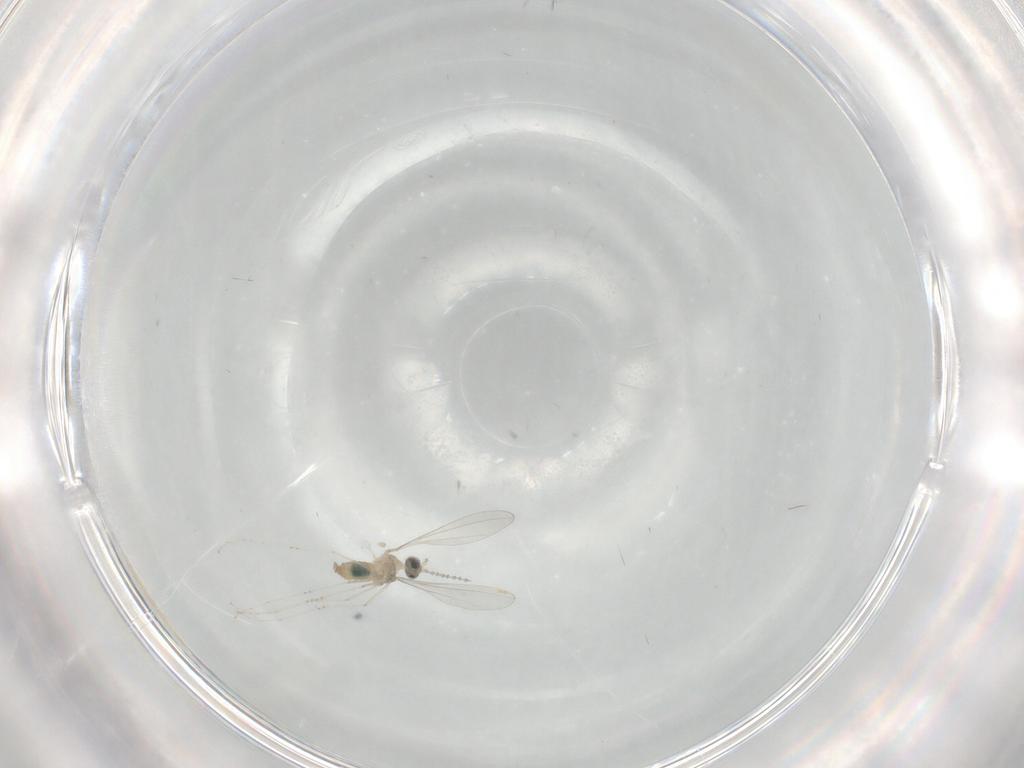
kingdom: Animalia
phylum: Arthropoda
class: Insecta
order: Diptera
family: Cecidomyiidae
